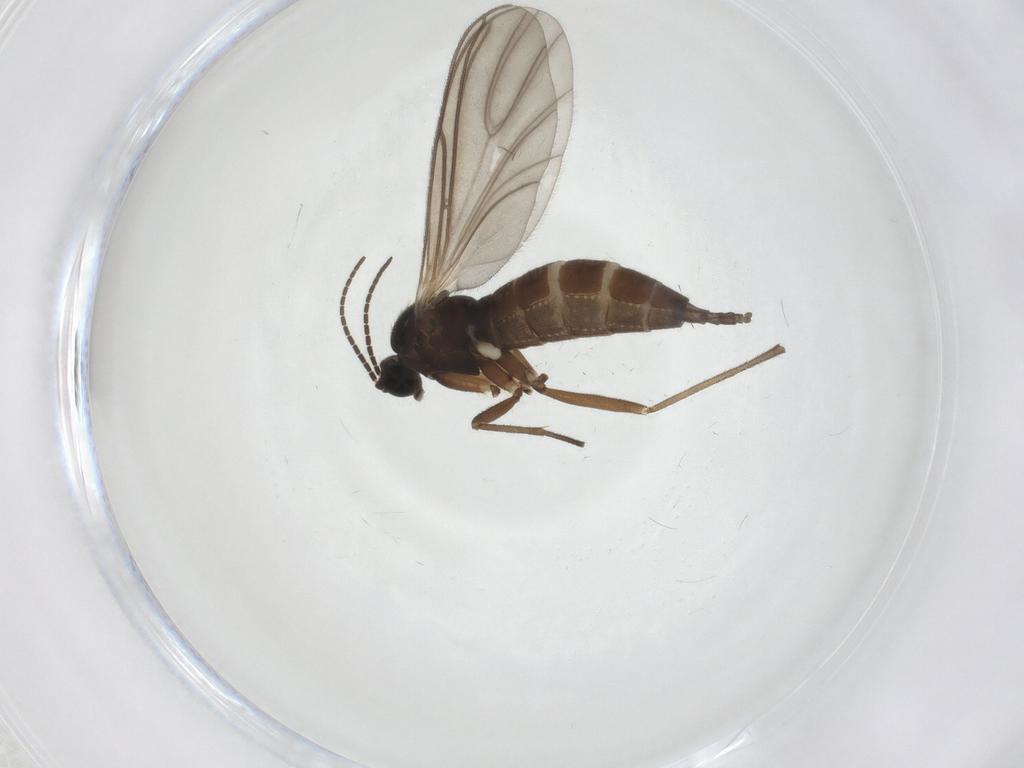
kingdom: Animalia
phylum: Arthropoda
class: Insecta
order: Diptera
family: Sciaridae
